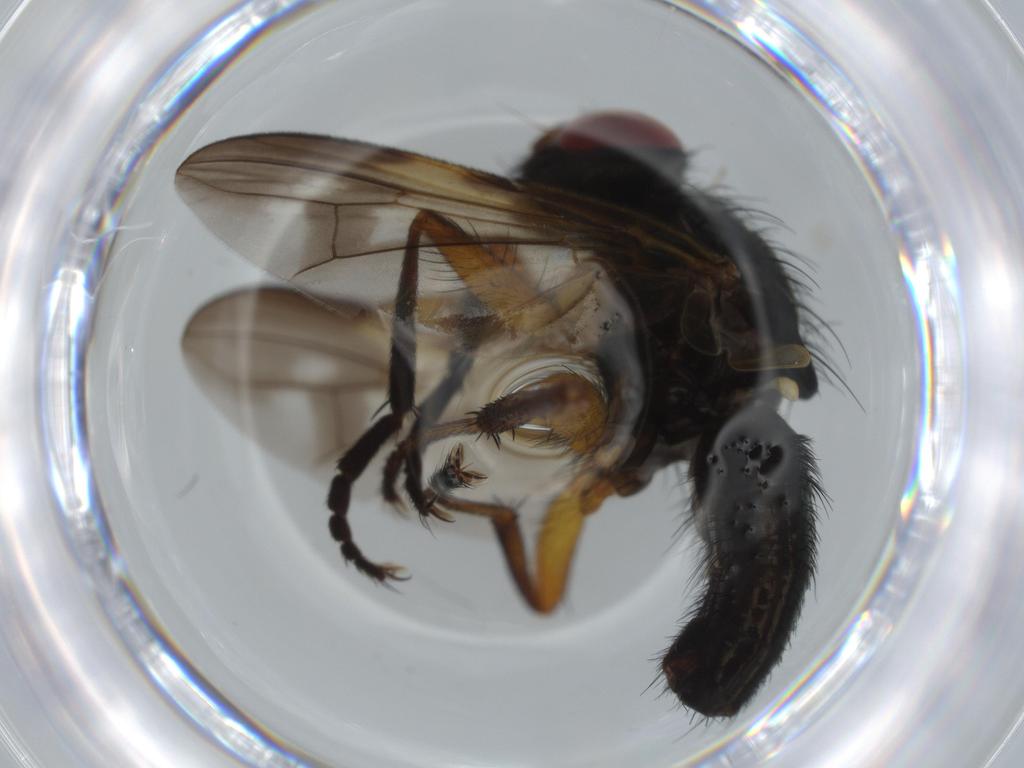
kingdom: Animalia
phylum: Arthropoda
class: Insecta
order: Diptera
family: Calliphoridae
